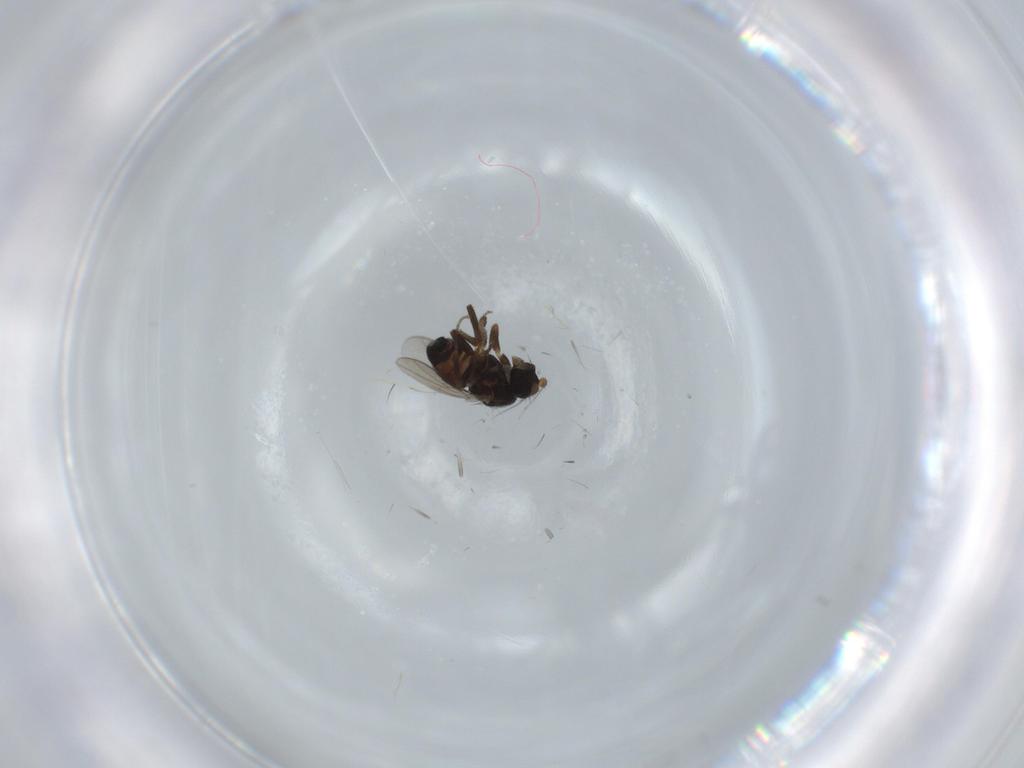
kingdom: Animalia
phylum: Arthropoda
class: Insecta
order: Diptera
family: Sphaeroceridae
